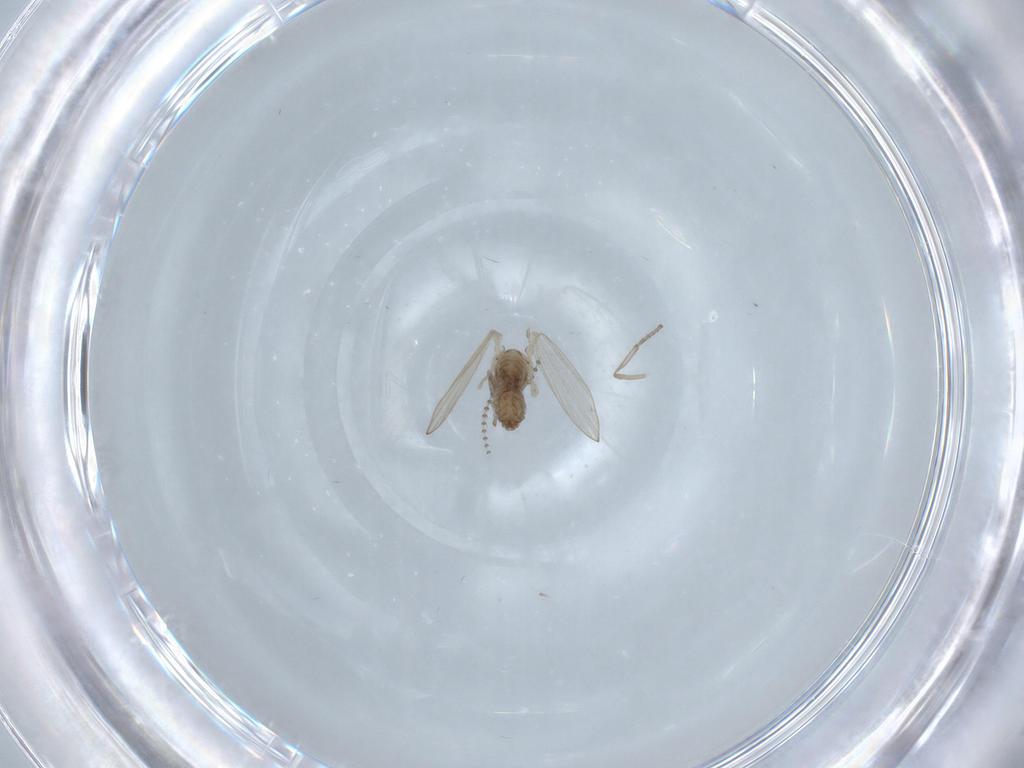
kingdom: Animalia
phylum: Arthropoda
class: Insecta
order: Diptera
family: Psychodidae
